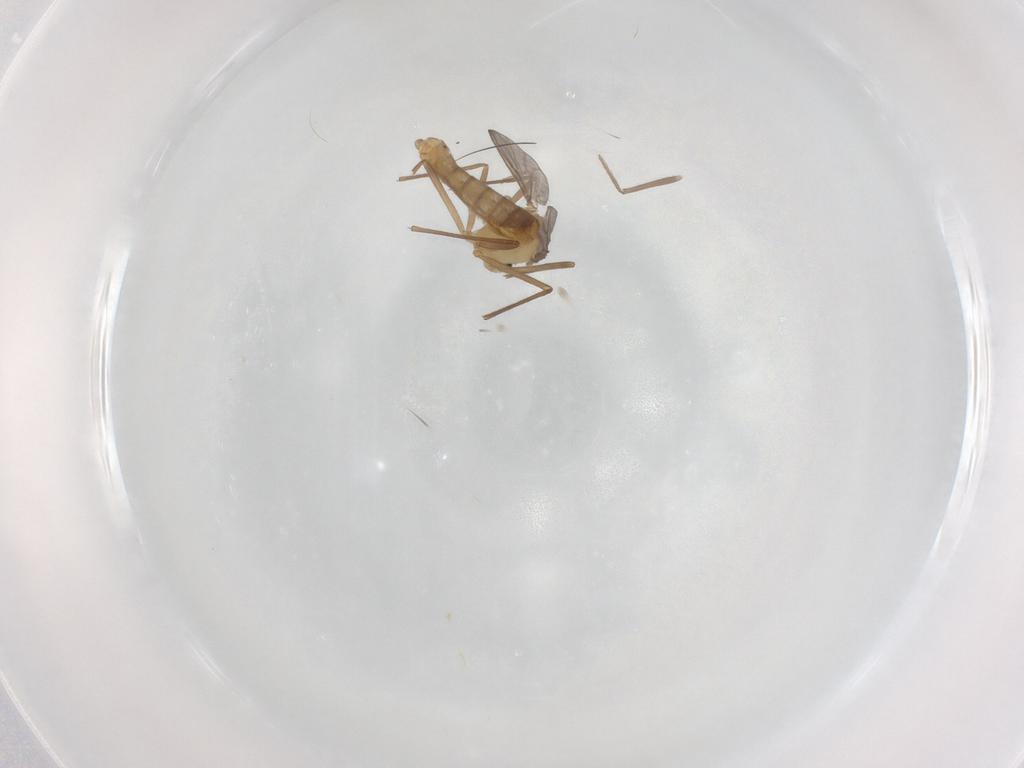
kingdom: Animalia
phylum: Arthropoda
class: Insecta
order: Diptera
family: Chironomidae
